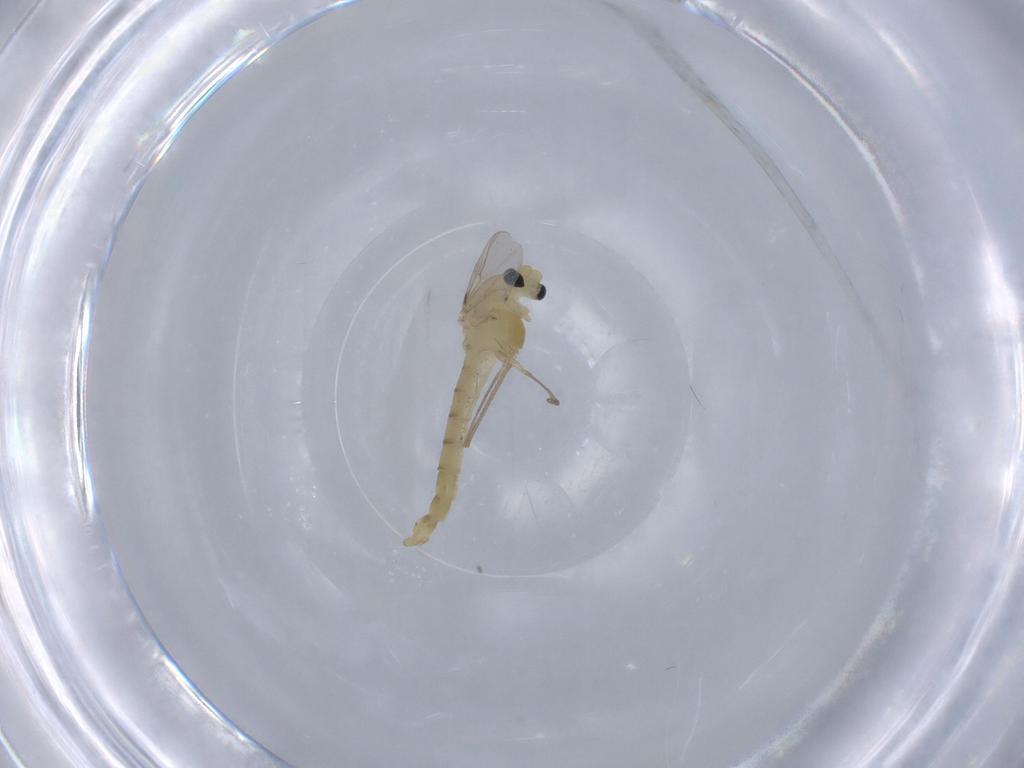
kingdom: Animalia
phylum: Arthropoda
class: Insecta
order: Diptera
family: Chironomidae
